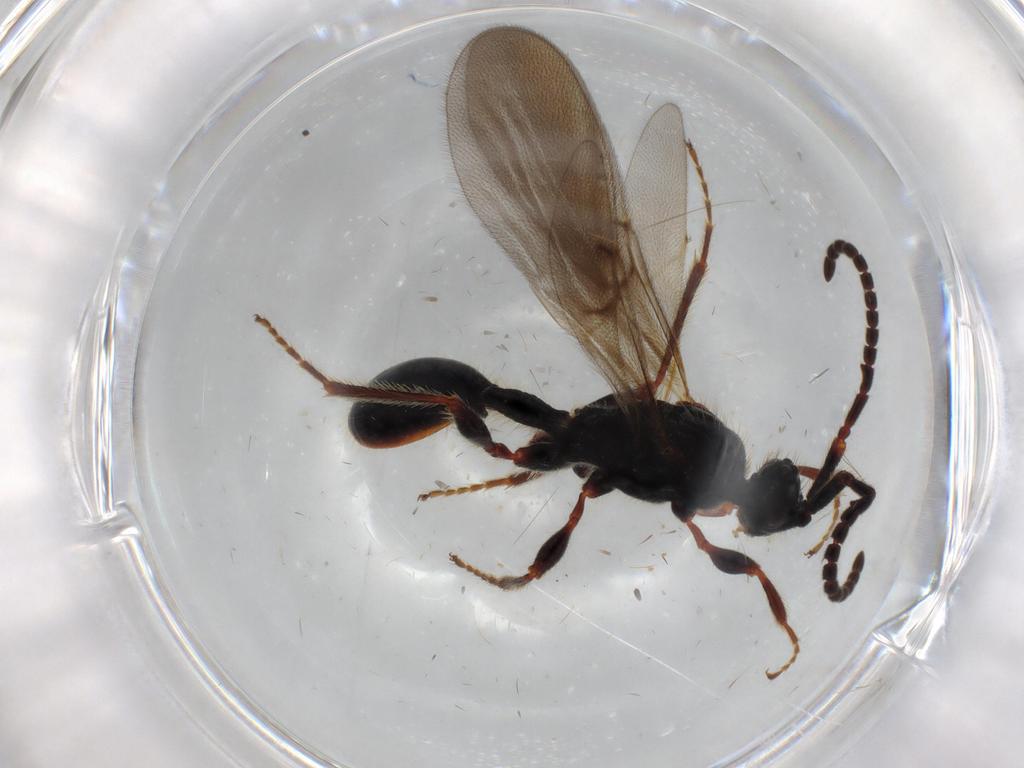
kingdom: Animalia
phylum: Arthropoda
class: Insecta
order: Hymenoptera
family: Diapriidae
